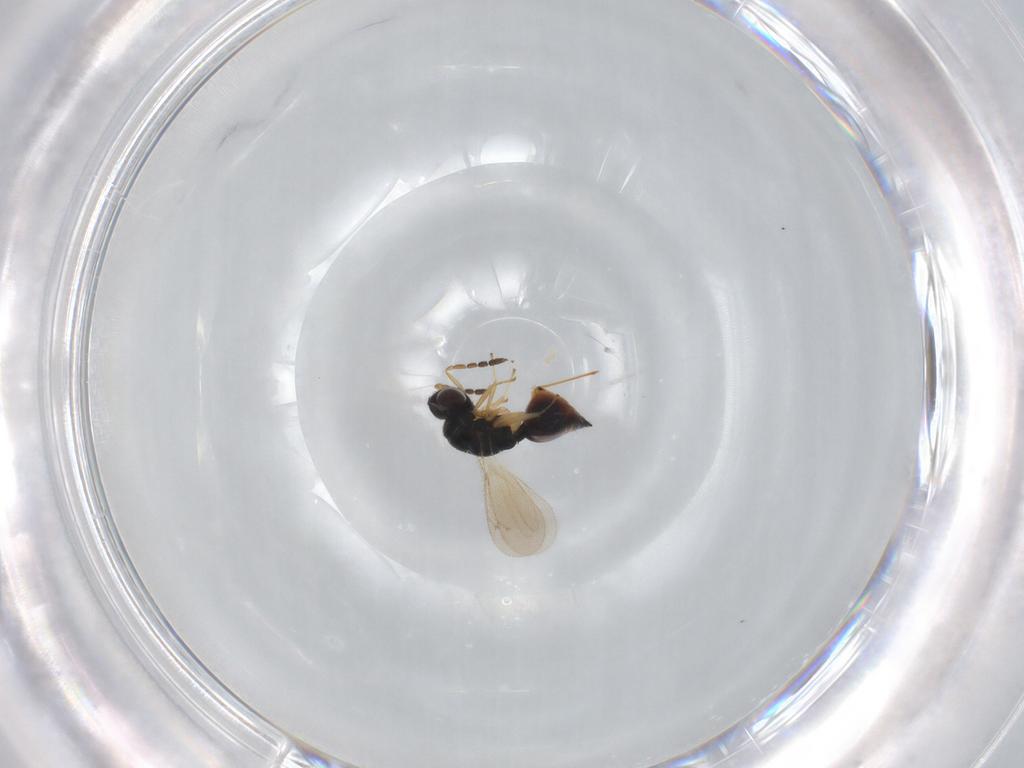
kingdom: Animalia
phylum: Arthropoda
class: Insecta
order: Hymenoptera
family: Eulophidae
